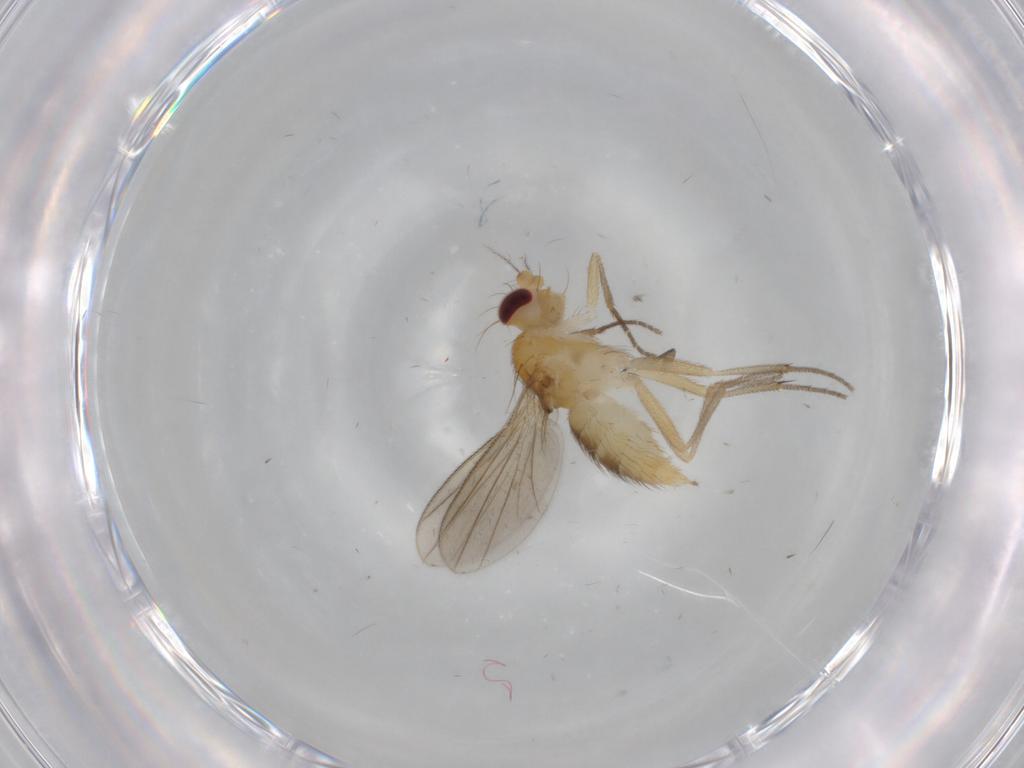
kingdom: Animalia
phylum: Arthropoda
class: Insecta
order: Diptera
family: Clusiidae
